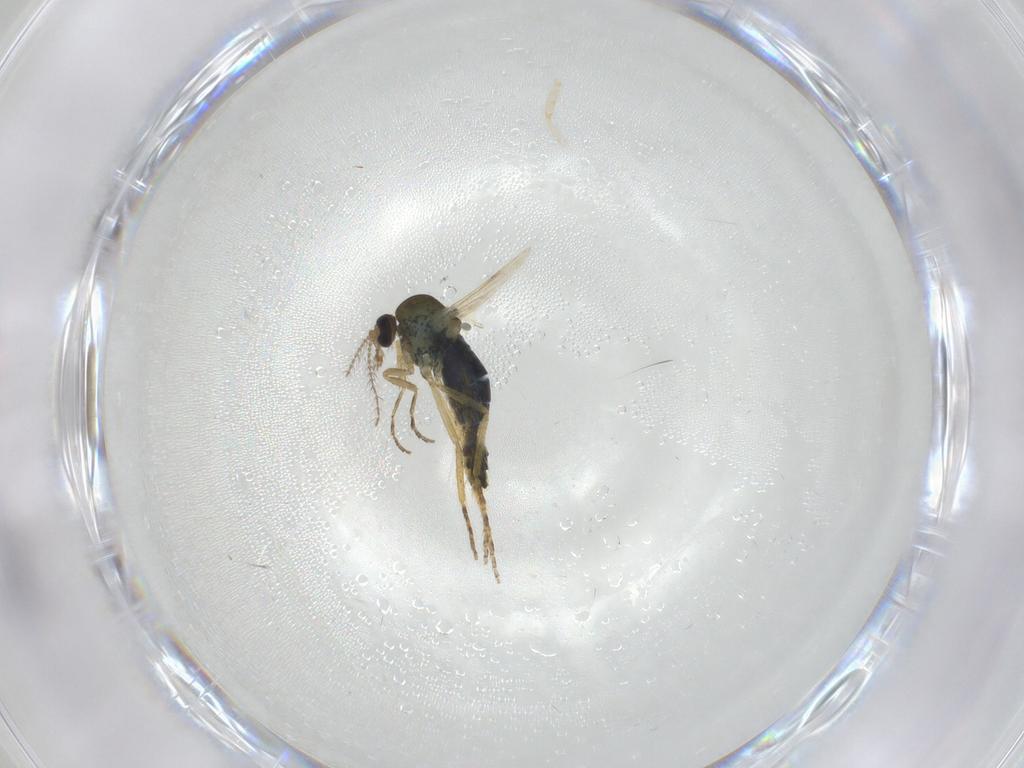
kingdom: Animalia
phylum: Arthropoda
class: Insecta
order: Diptera
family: Ceratopogonidae
